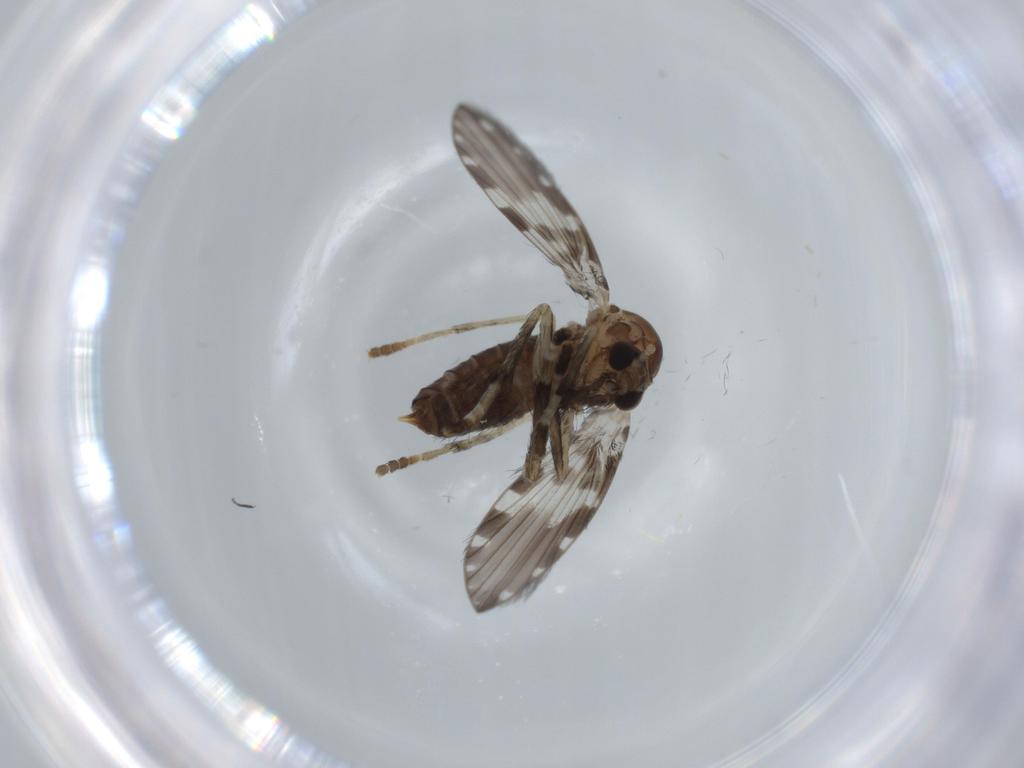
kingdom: Animalia
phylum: Arthropoda
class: Insecta
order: Diptera
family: Psychodidae
